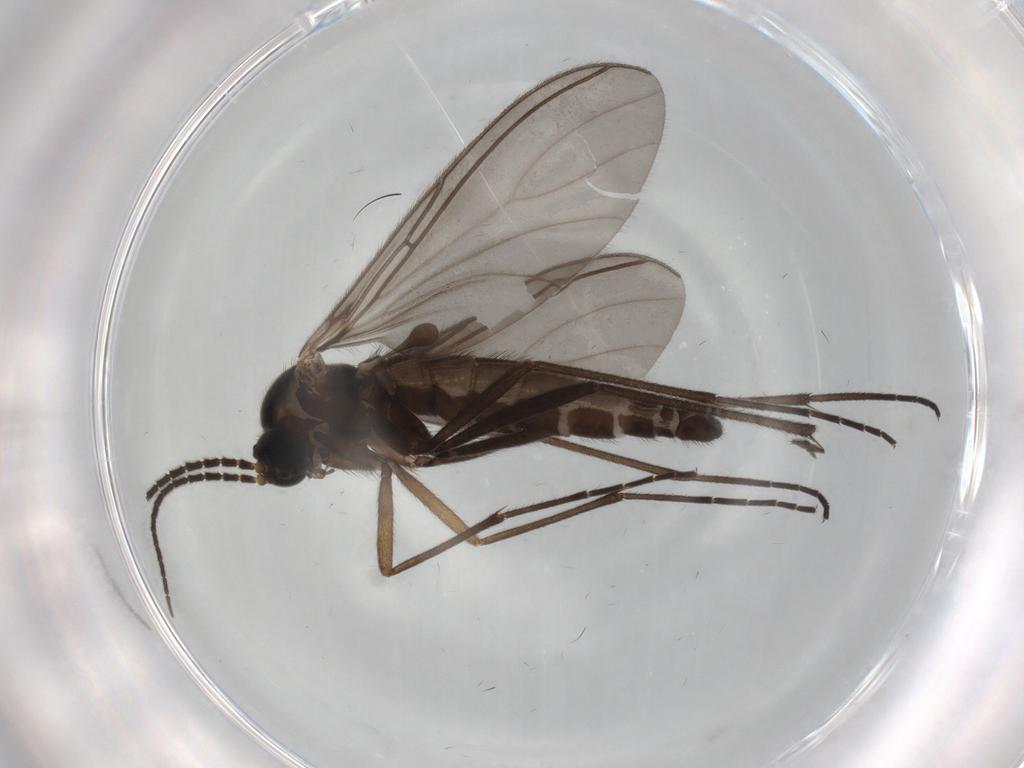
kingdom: Animalia
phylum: Arthropoda
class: Insecta
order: Diptera
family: Sciaridae
